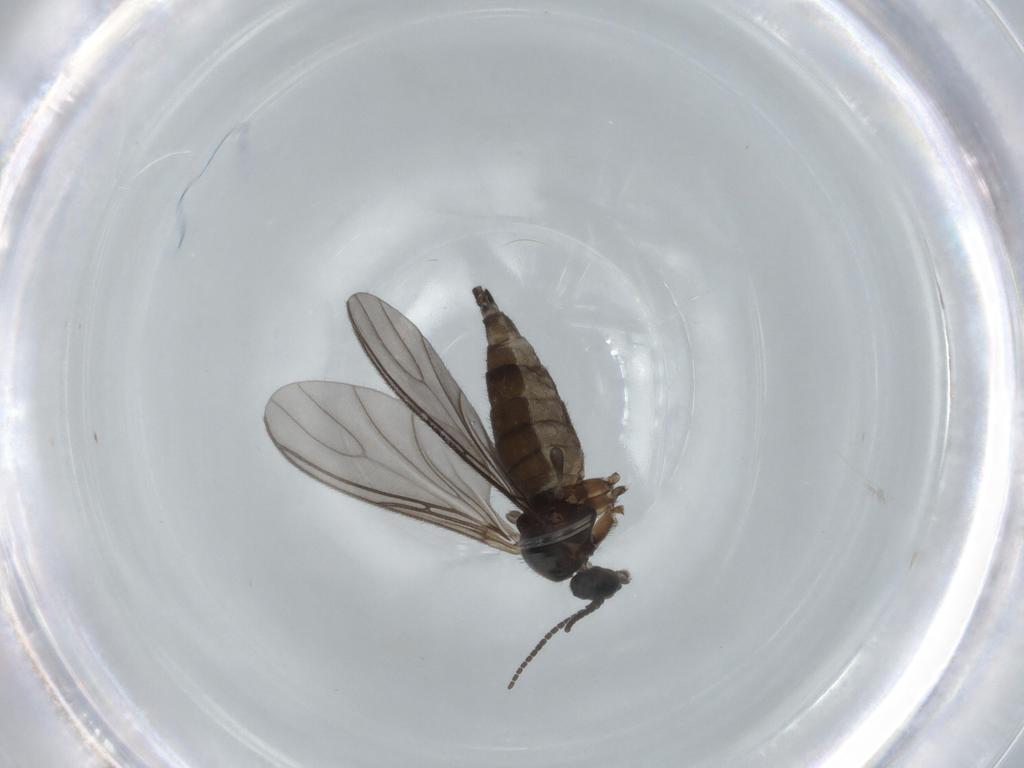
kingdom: Animalia
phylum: Arthropoda
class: Insecta
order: Diptera
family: Sciaridae
